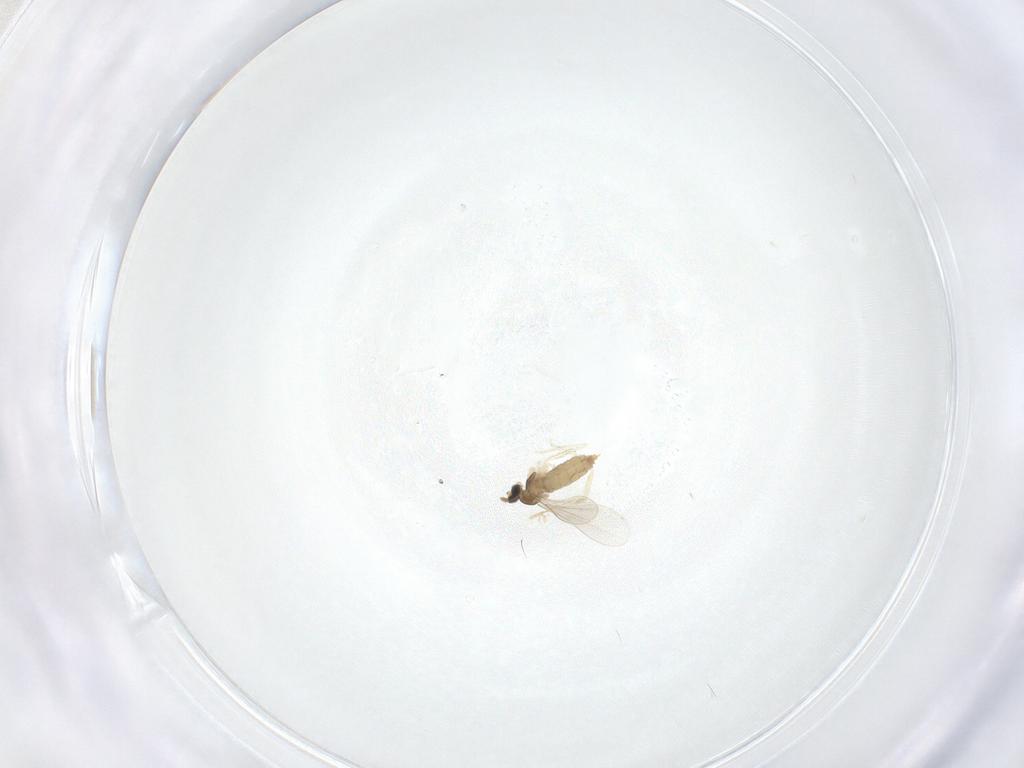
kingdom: Animalia
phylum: Arthropoda
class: Insecta
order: Diptera
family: Cecidomyiidae
